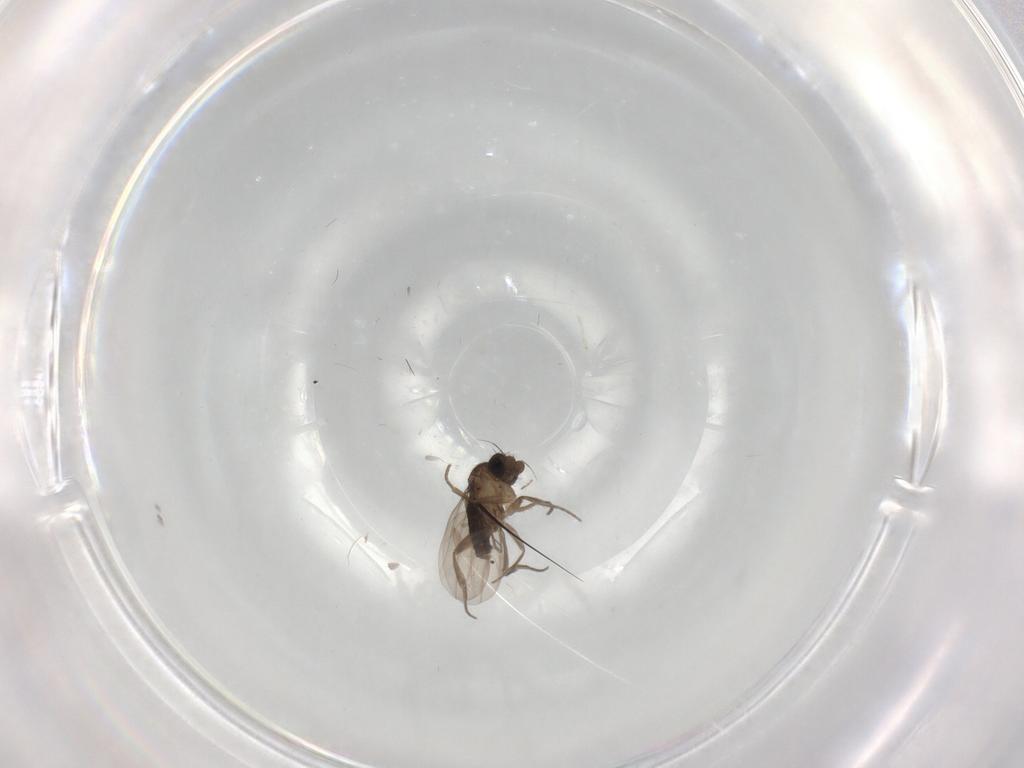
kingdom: Animalia
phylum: Arthropoda
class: Insecta
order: Diptera
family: Phoridae
